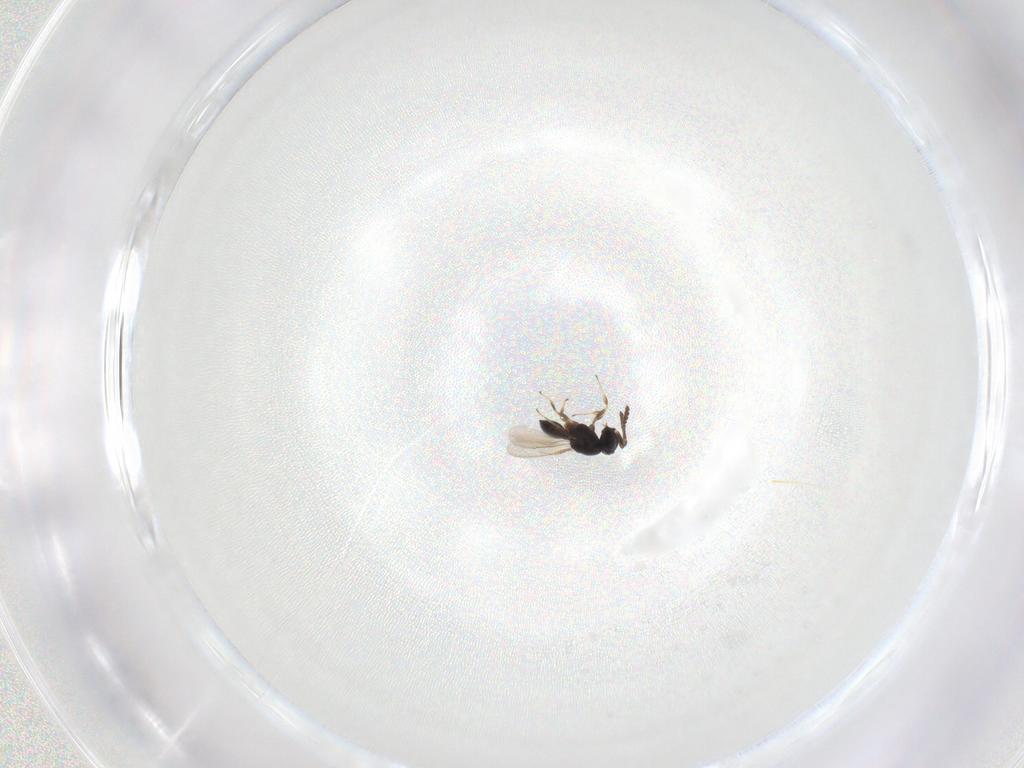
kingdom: Animalia
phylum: Arthropoda
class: Insecta
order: Hymenoptera
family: Scelionidae
